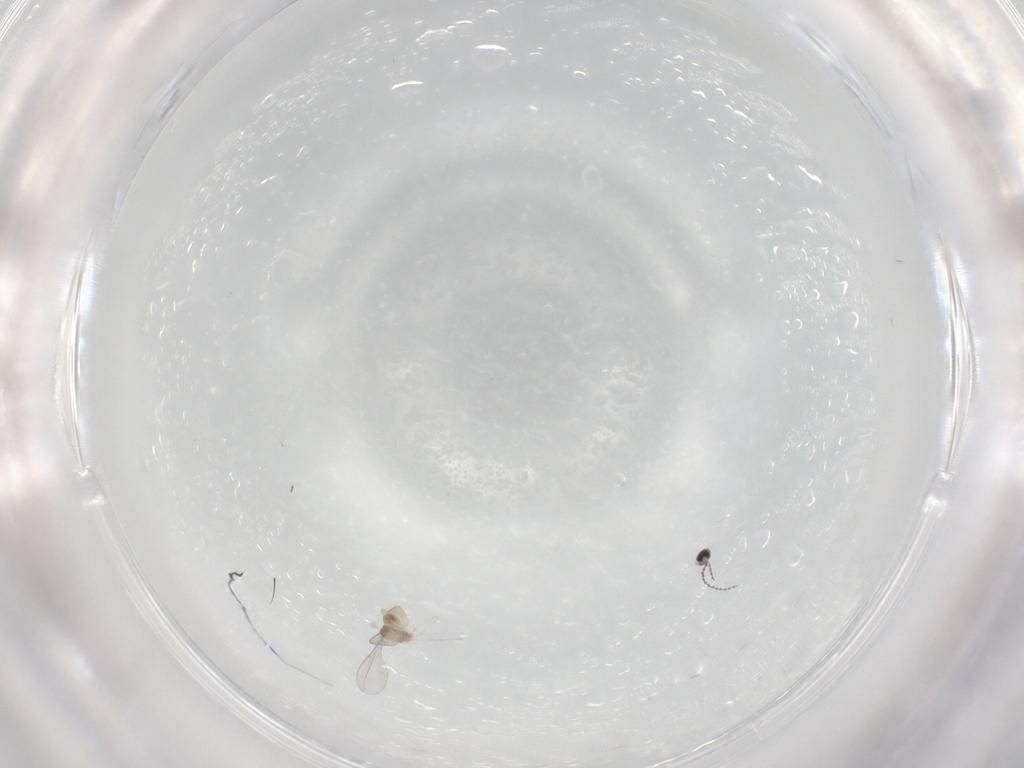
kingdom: Animalia
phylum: Arthropoda
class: Insecta
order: Diptera
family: Cecidomyiidae
